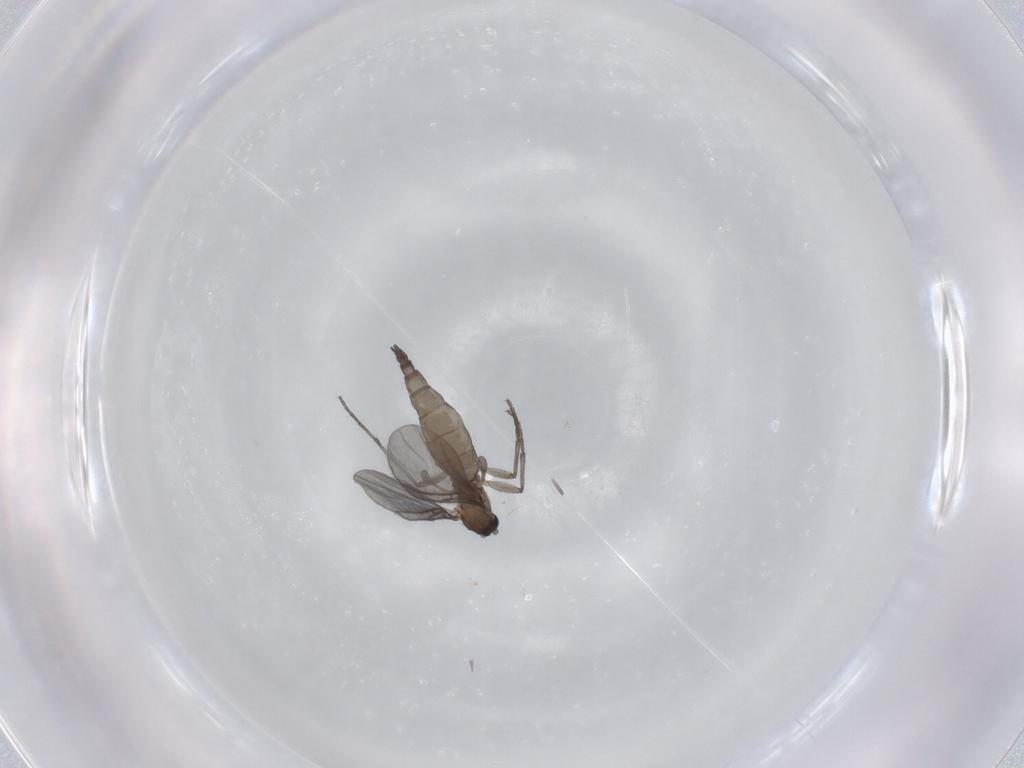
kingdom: Animalia
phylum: Arthropoda
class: Insecta
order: Diptera
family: Sciaridae
